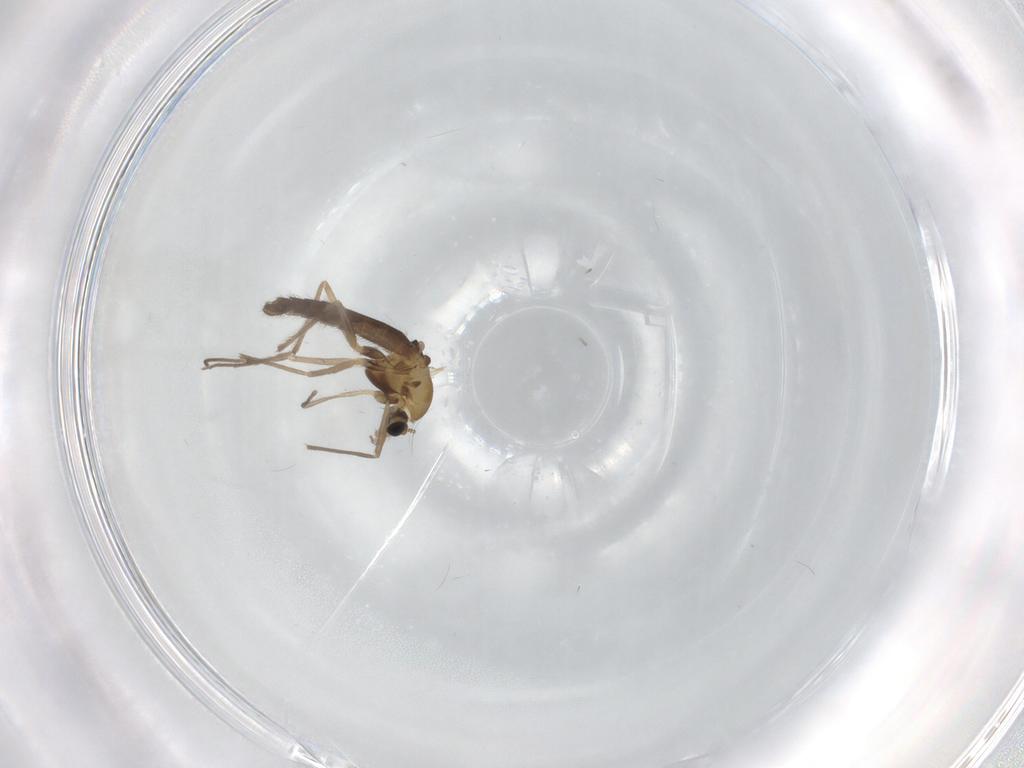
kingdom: Animalia
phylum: Arthropoda
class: Insecta
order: Diptera
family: Chironomidae
